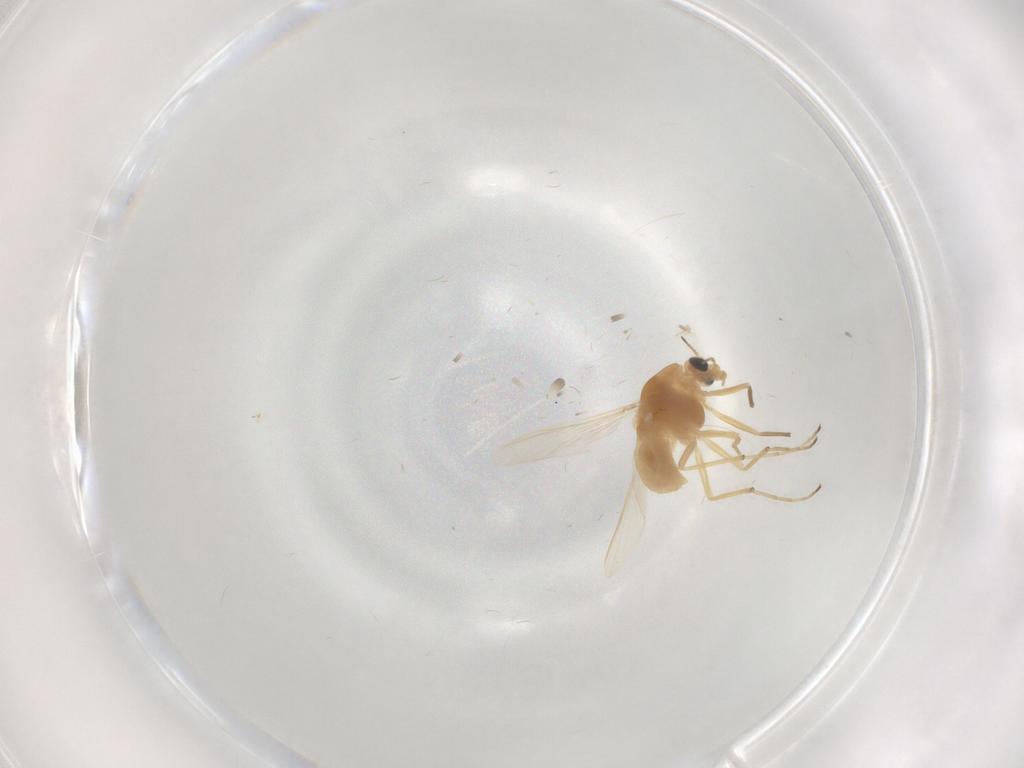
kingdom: Animalia
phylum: Arthropoda
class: Insecta
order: Diptera
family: Chironomidae
